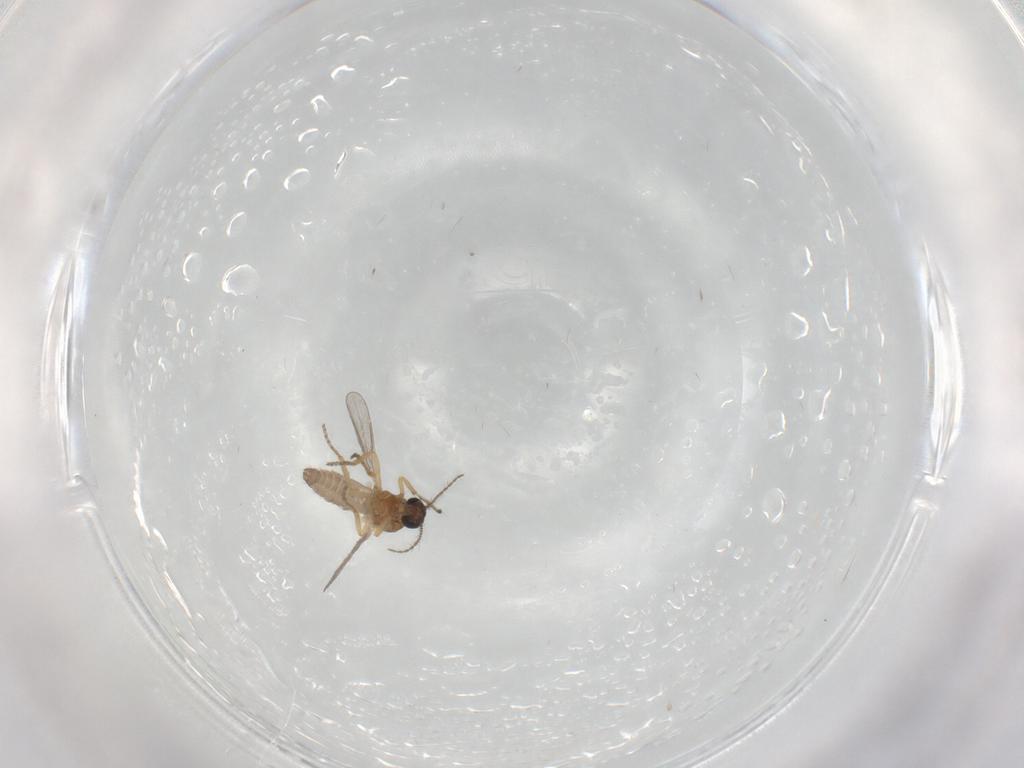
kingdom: Animalia
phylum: Arthropoda
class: Insecta
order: Diptera
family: Ceratopogonidae
